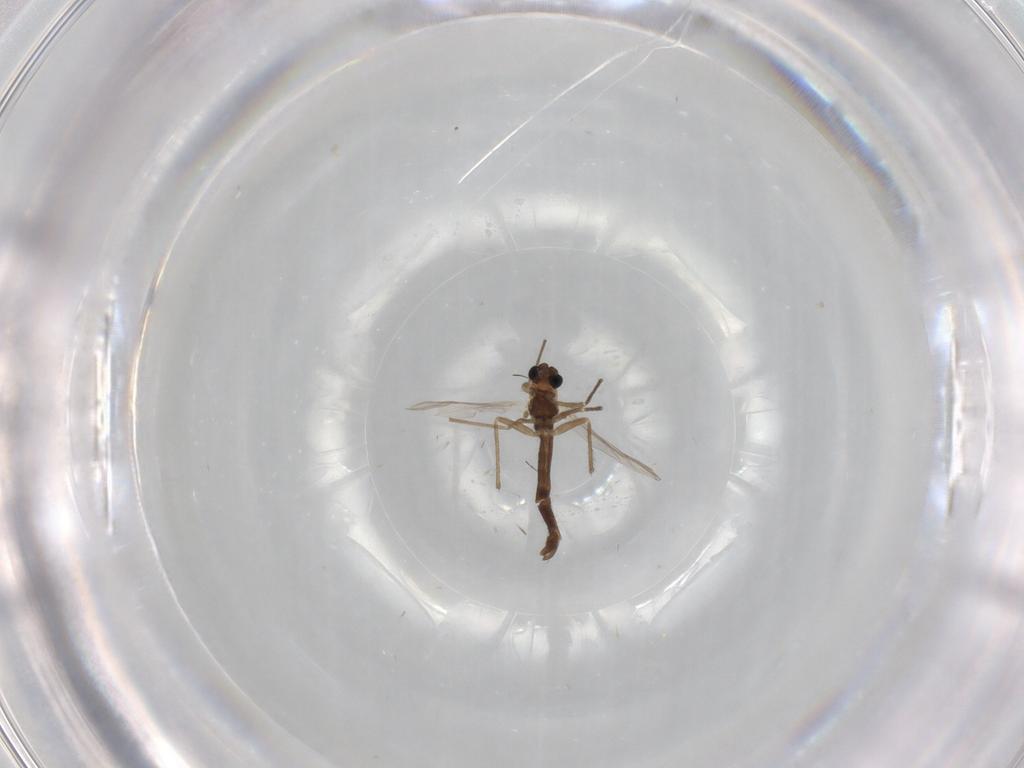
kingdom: Animalia
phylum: Arthropoda
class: Insecta
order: Diptera
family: Chironomidae
